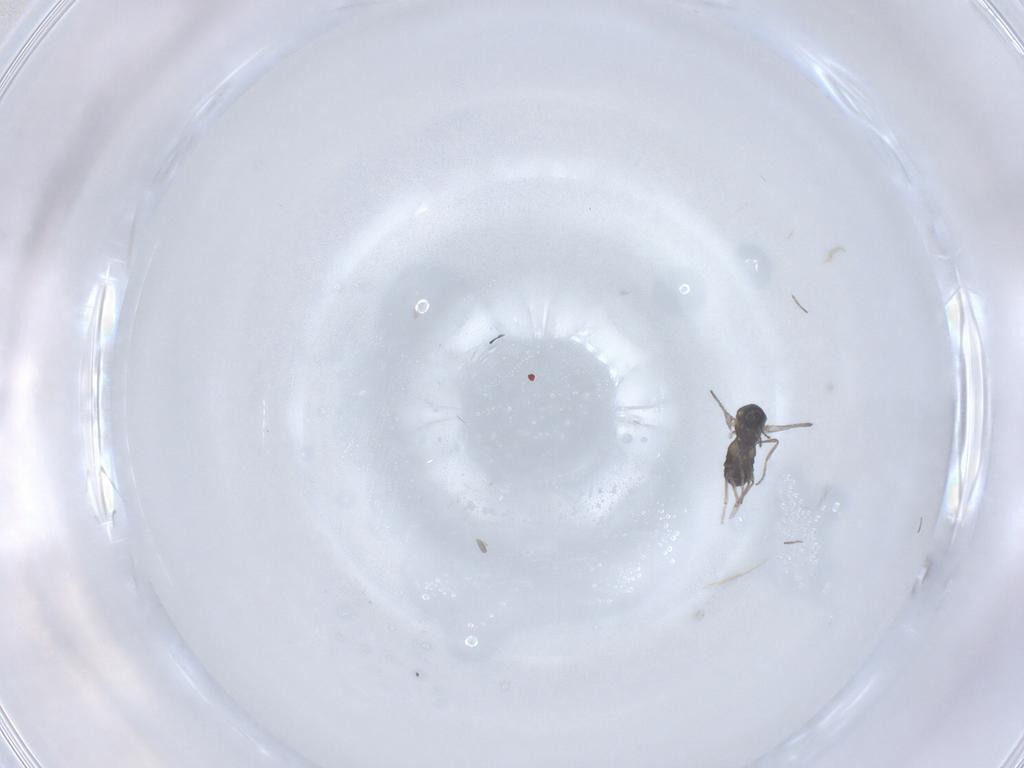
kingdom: Animalia
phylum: Arthropoda
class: Insecta
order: Diptera
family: Ceratopogonidae
